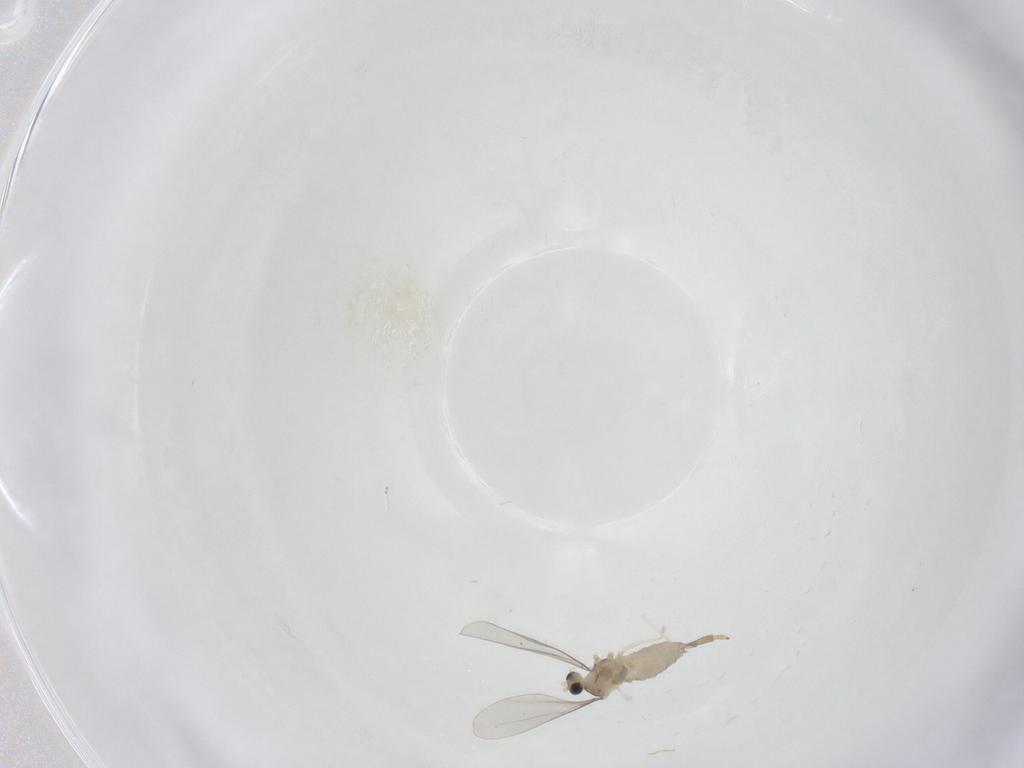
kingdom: Animalia
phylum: Arthropoda
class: Insecta
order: Diptera
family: Cecidomyiidae
